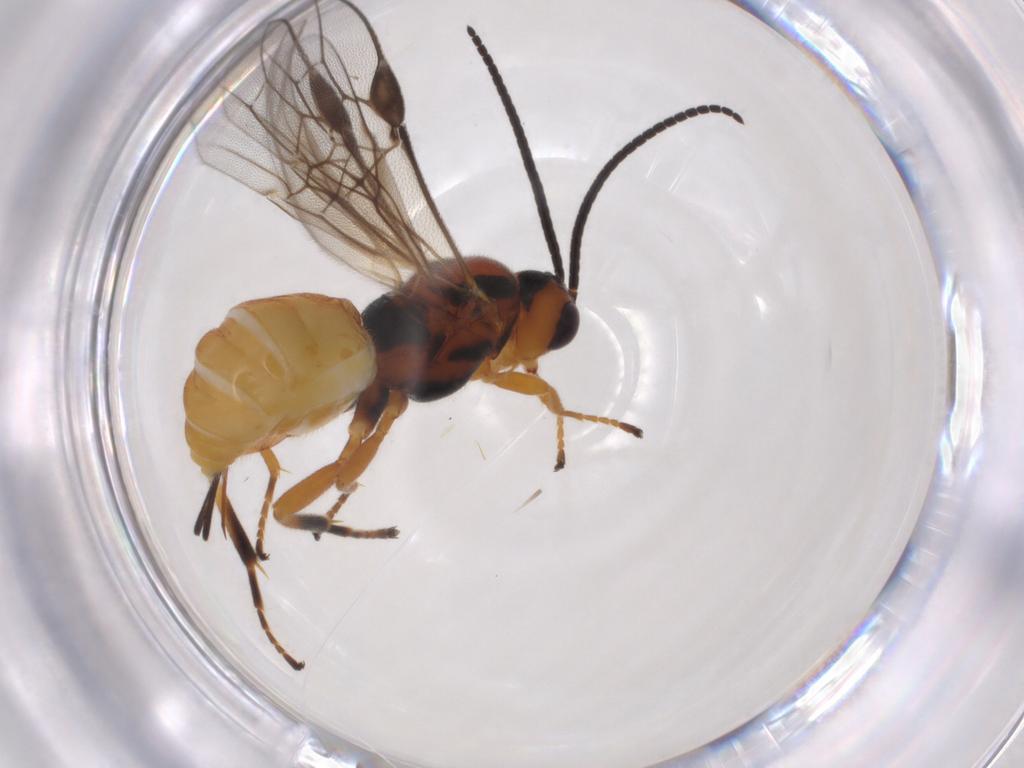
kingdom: Animalia
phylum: Arthropoda
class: Insecta
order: Hymenoptera
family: Braconidae
